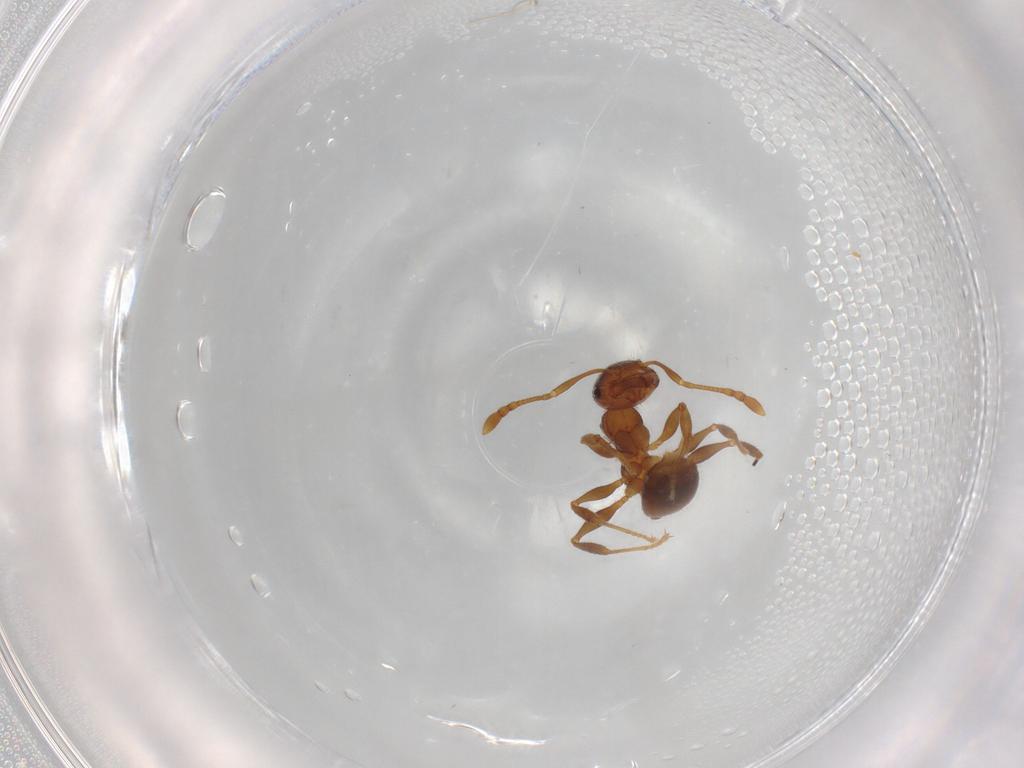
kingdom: Animalia
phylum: Arthropoda
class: Insecta
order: Hymenoptera
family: Formicidae
